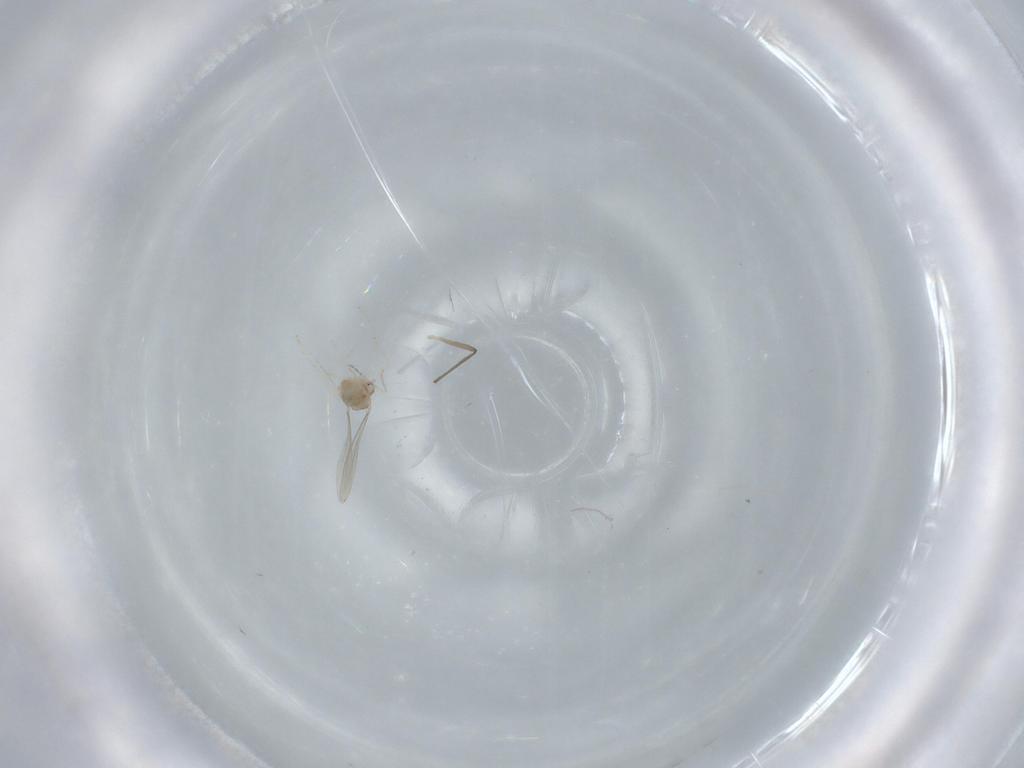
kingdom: Animalia
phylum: Arthropoda
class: Insecta
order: Diptera
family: Cecidomyiidae
